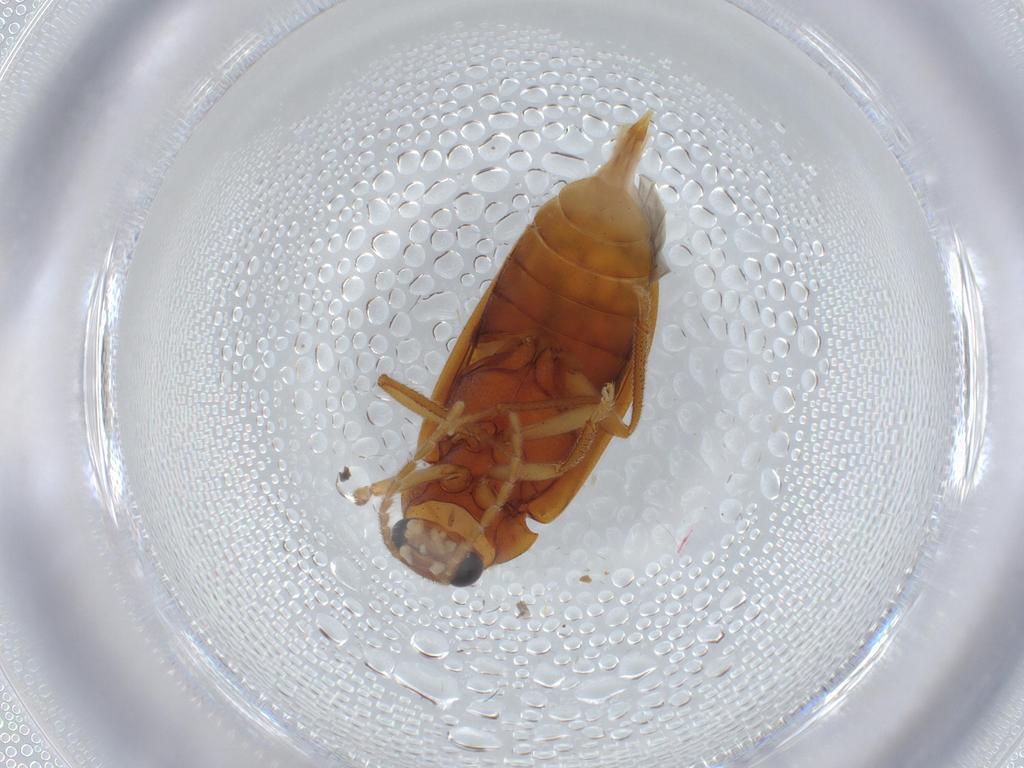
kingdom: Animalia
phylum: Arthropoda
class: Insecta
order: Coleoptera
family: Ptilodactylidae
